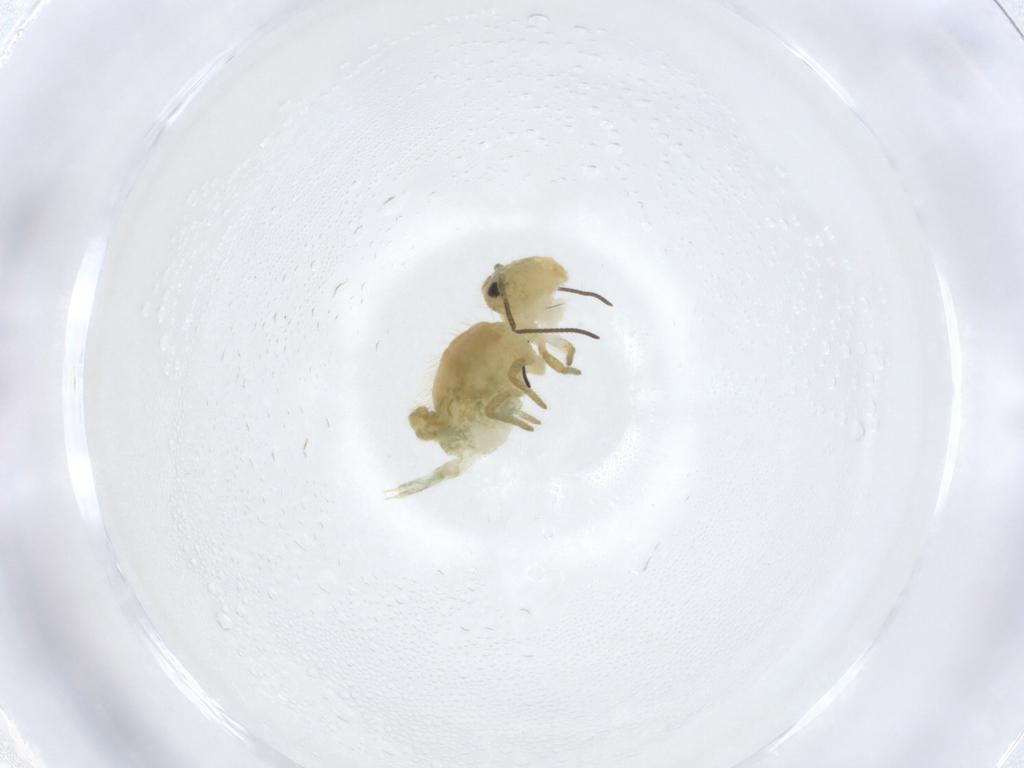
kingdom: Animalia
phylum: Arthropoda
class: Collembola
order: Symphypleona
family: Sminthuridae
